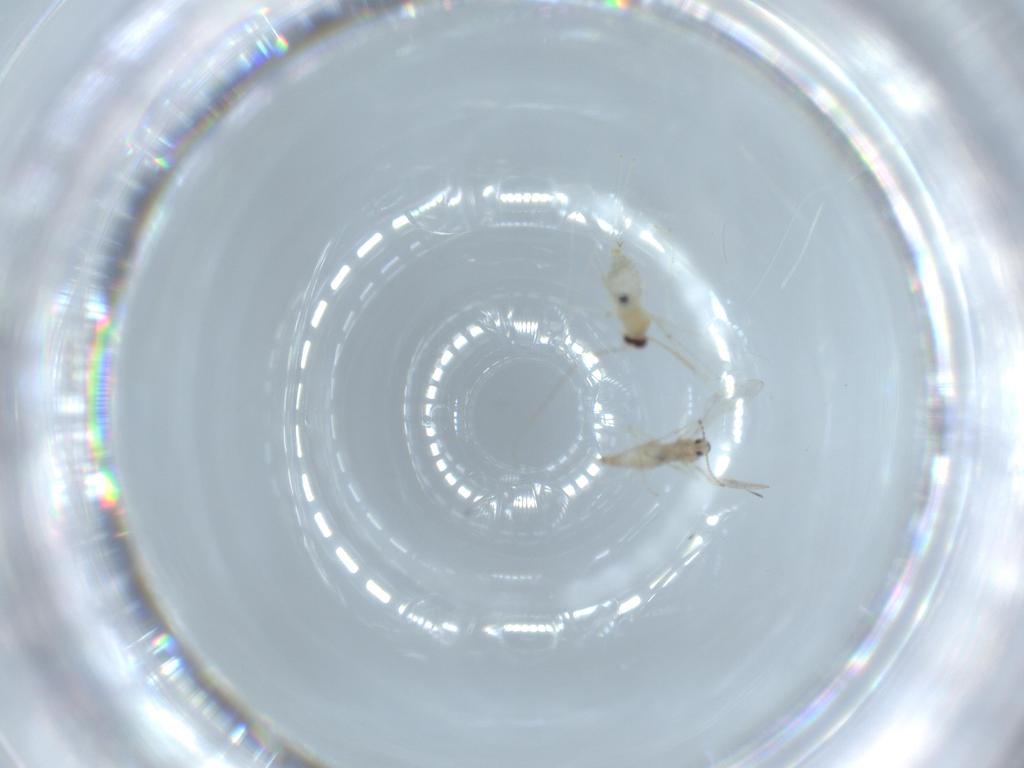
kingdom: Animalia
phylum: Arthropoda
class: Insecta
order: Diptera
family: Cecidomyiidae
